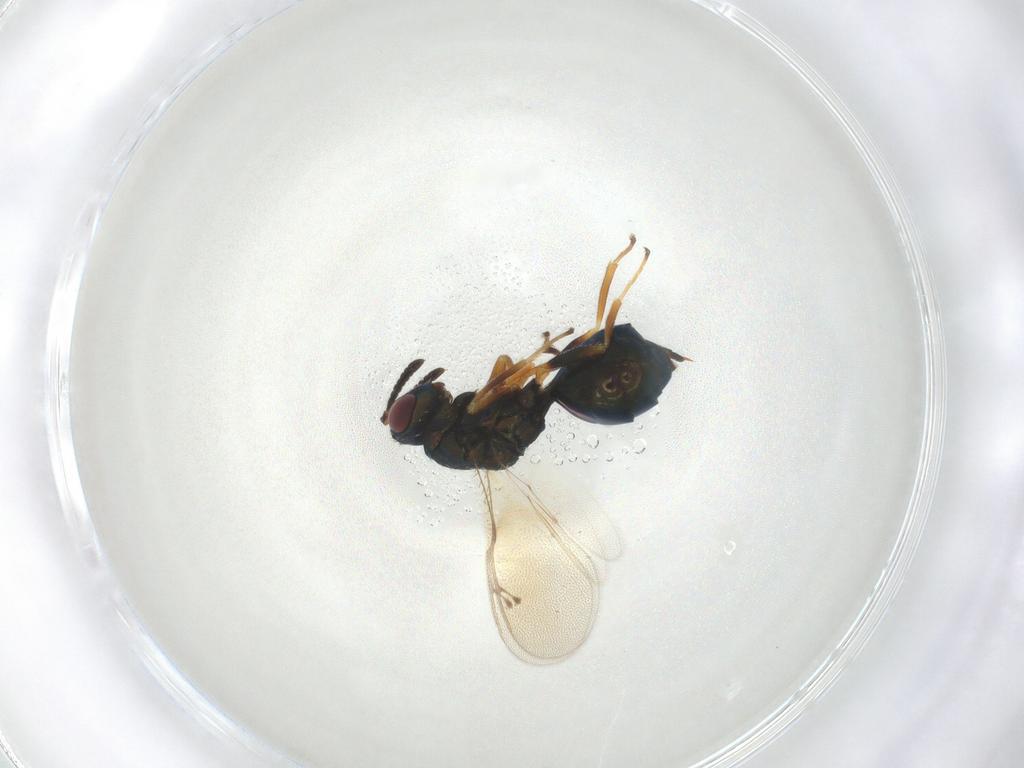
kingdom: Animalia
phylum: Arthropoda
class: Insecta
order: Hymenoptera
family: Pteromalidae
